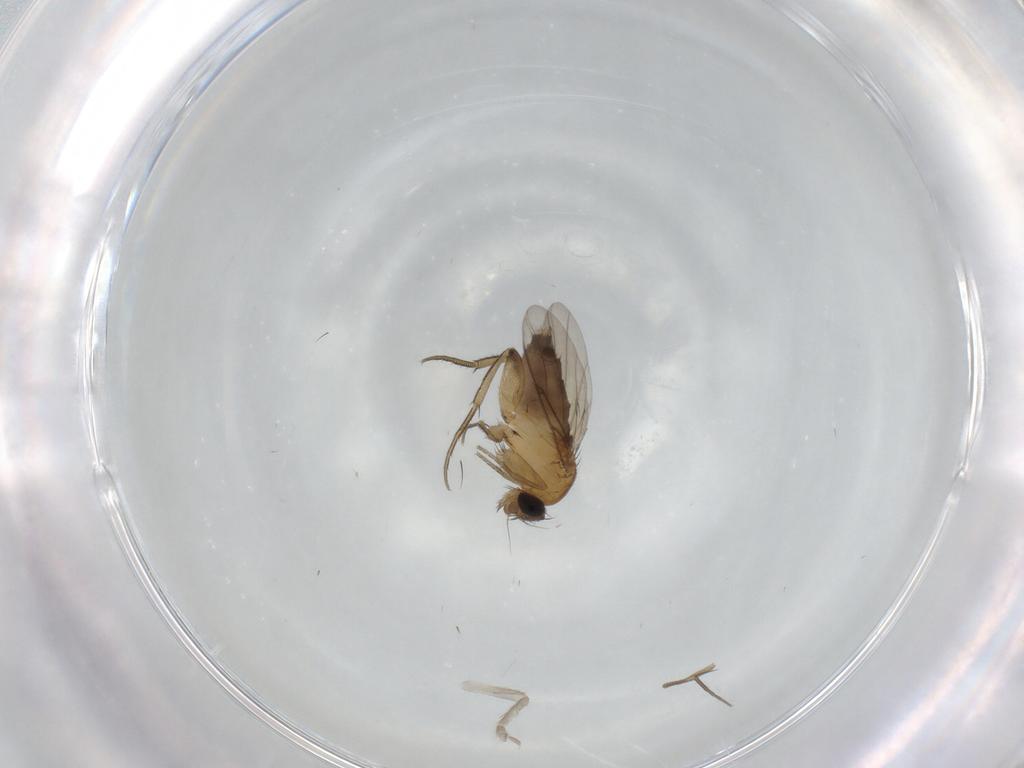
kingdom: Animalia
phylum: Arthropoda
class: Insecta
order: Diptera
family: Phoridae
